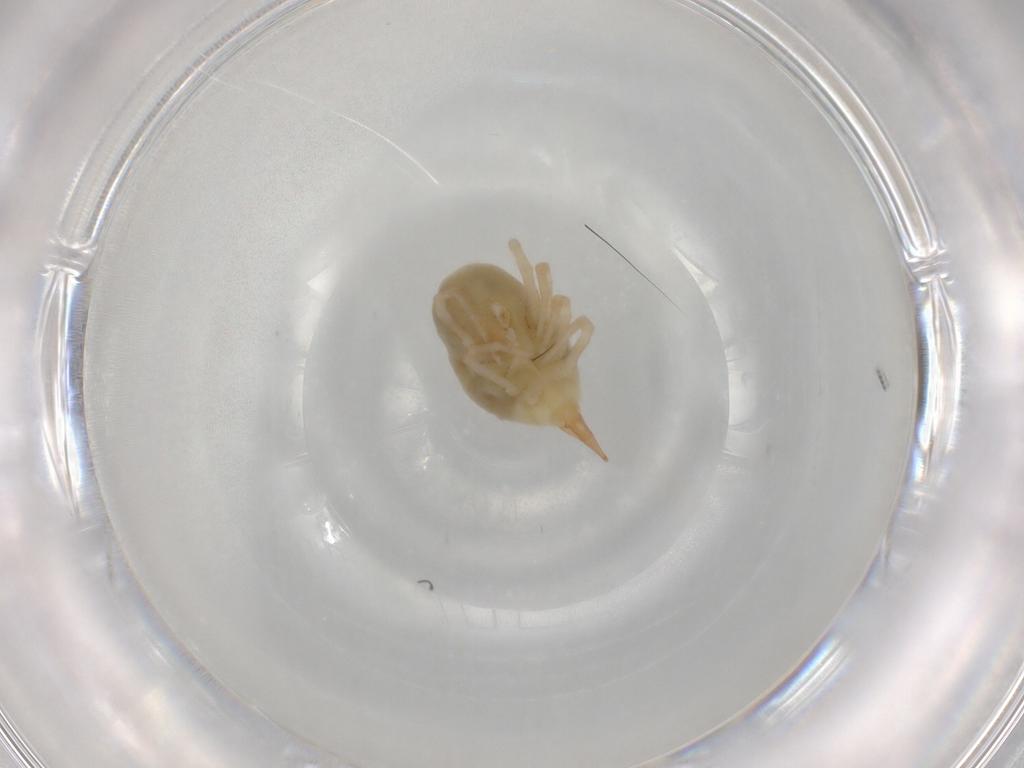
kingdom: Animalia
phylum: Arthropoda
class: Arachnida
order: Trombidiformes
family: Bdellidae
